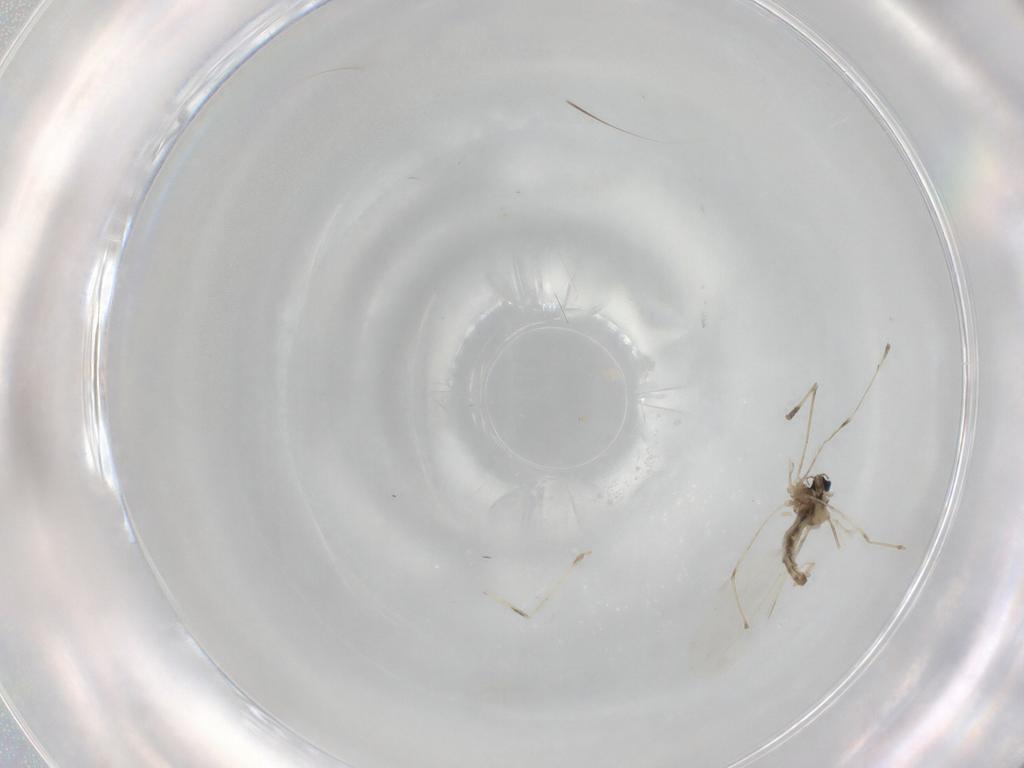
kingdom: Animalia
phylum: Arthropoda
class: Insecta
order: Diptera
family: Cecidomyiidae
